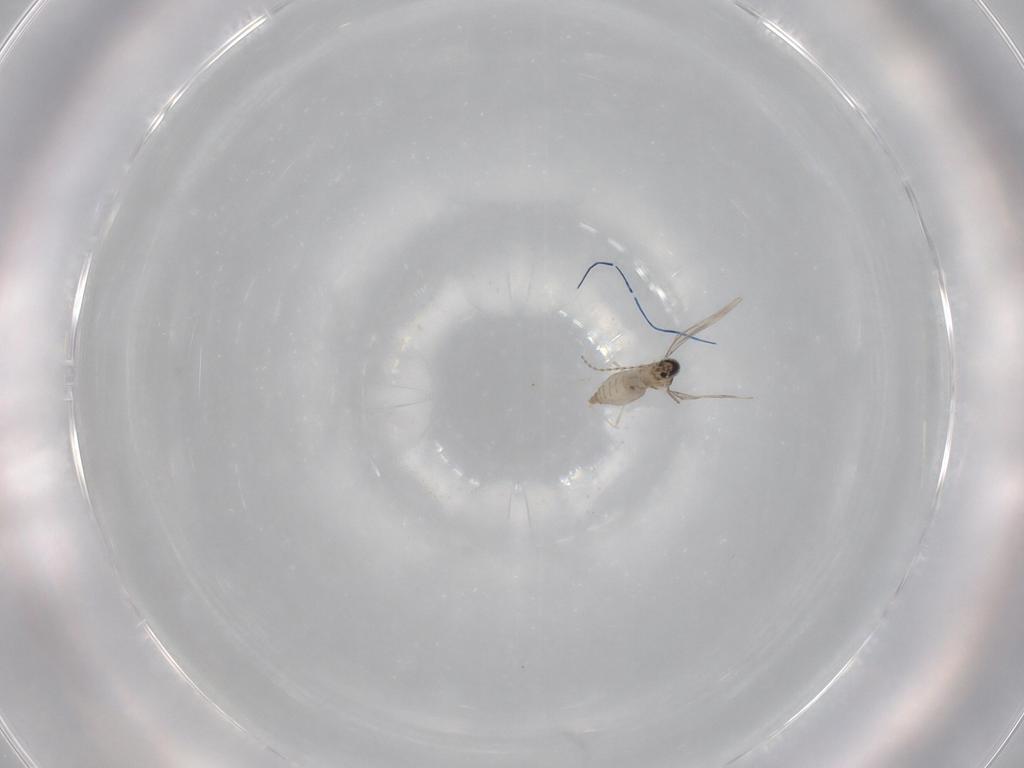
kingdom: Animalia
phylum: Arthropoda
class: Insecta
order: Diptera
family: Cecidomyiidae
